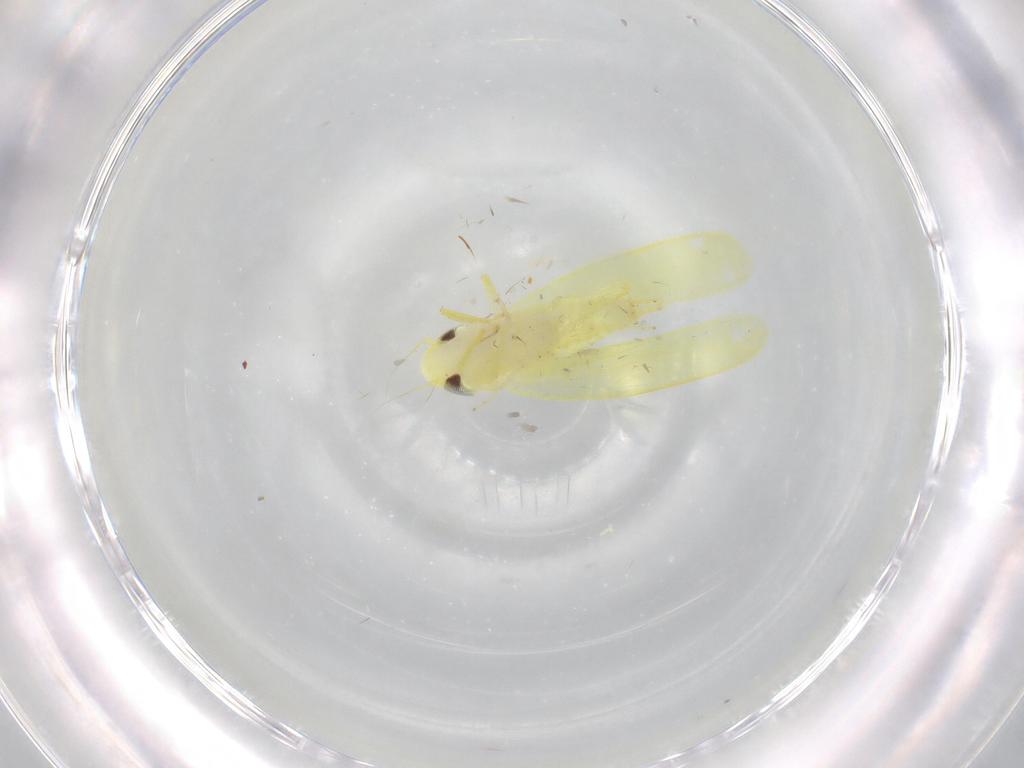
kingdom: Animalia
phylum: Arthropoda
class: Insecta
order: Hemiptera
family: Cicadellidae
